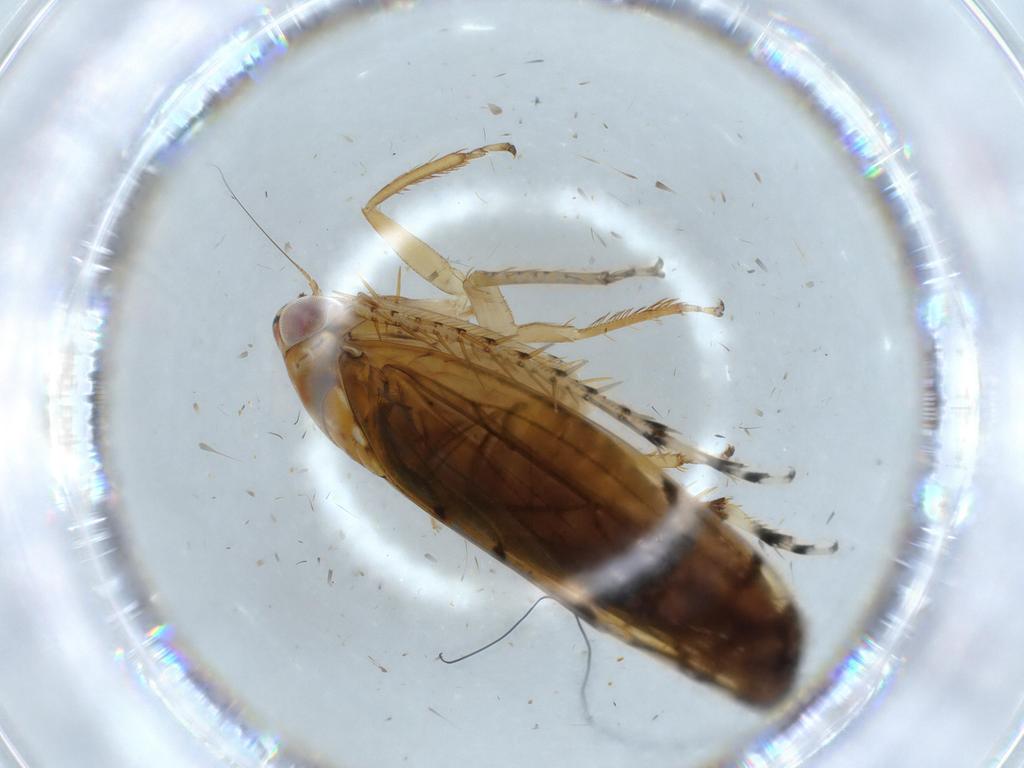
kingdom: Animalia
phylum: Arthropoda
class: Insecta
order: Hemiptera
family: Cicadellidae
